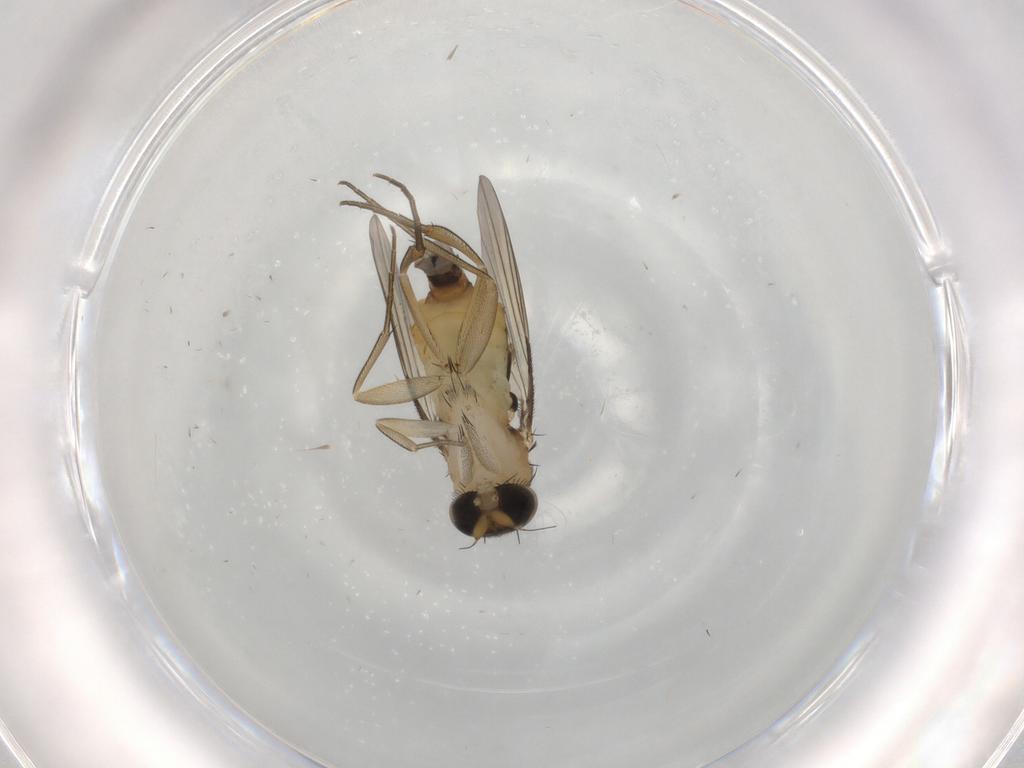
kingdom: Animalia
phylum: Arthropoda
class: Insecta
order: Diptera
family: Phoridae
